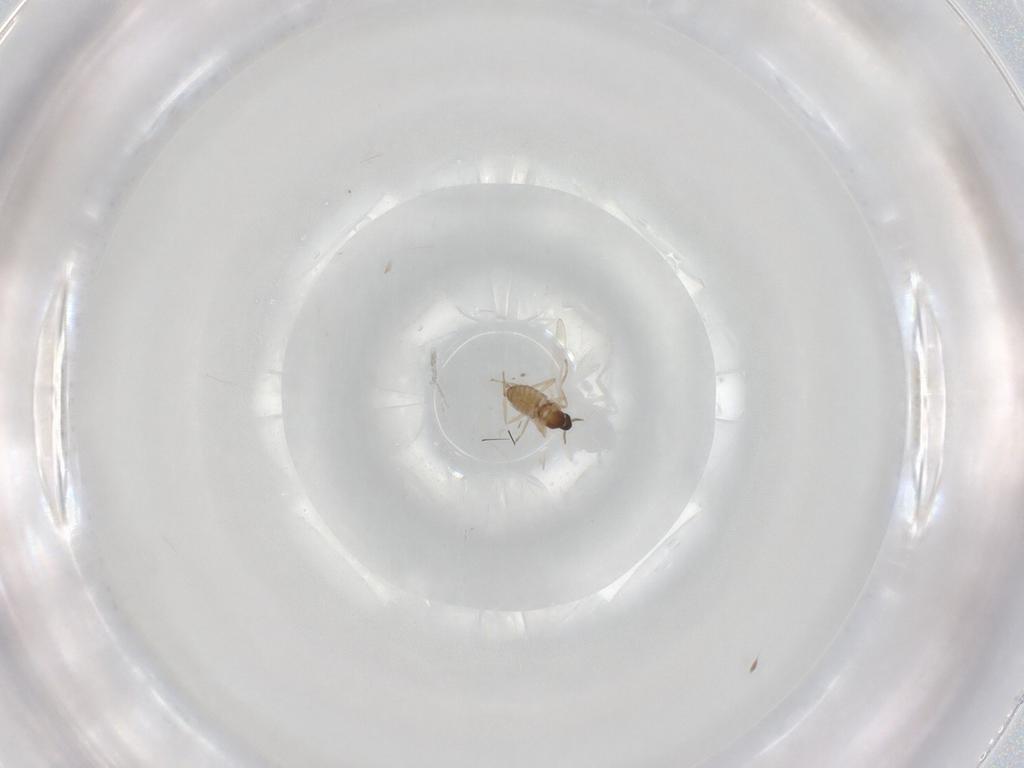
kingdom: Animalia
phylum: Arthropoda
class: Insecta
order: Diptera
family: Cecidomyiidae
